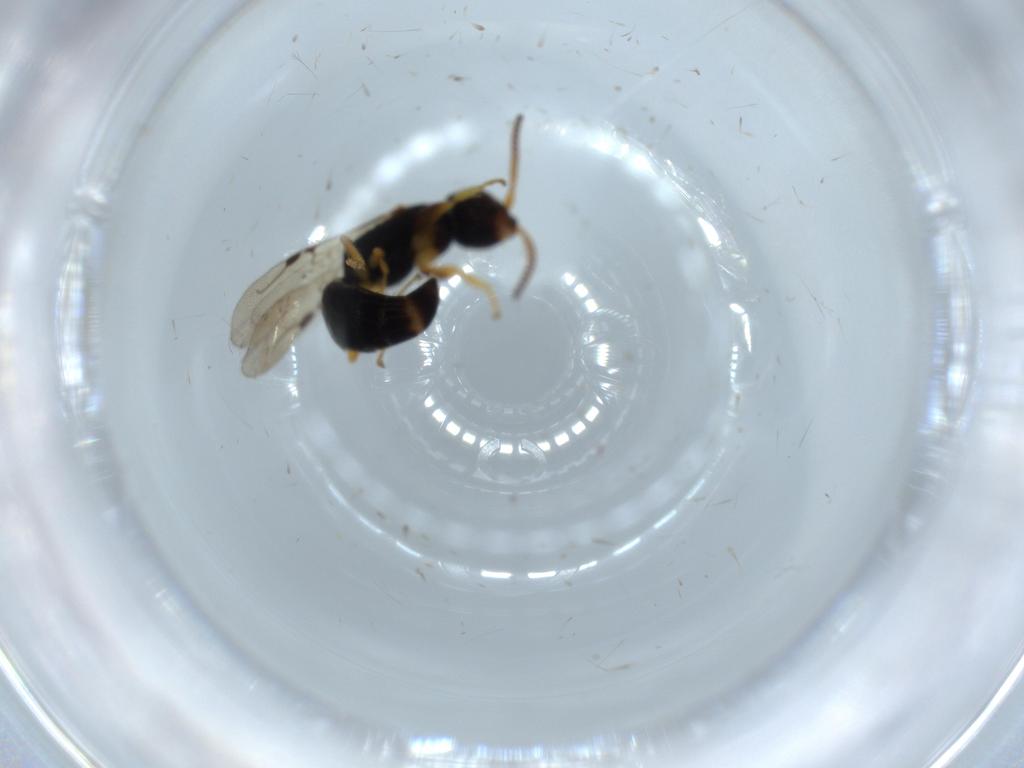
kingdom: Animalia
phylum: Arthropoda
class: Insecta
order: Hymenoptera
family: Bethylidae
